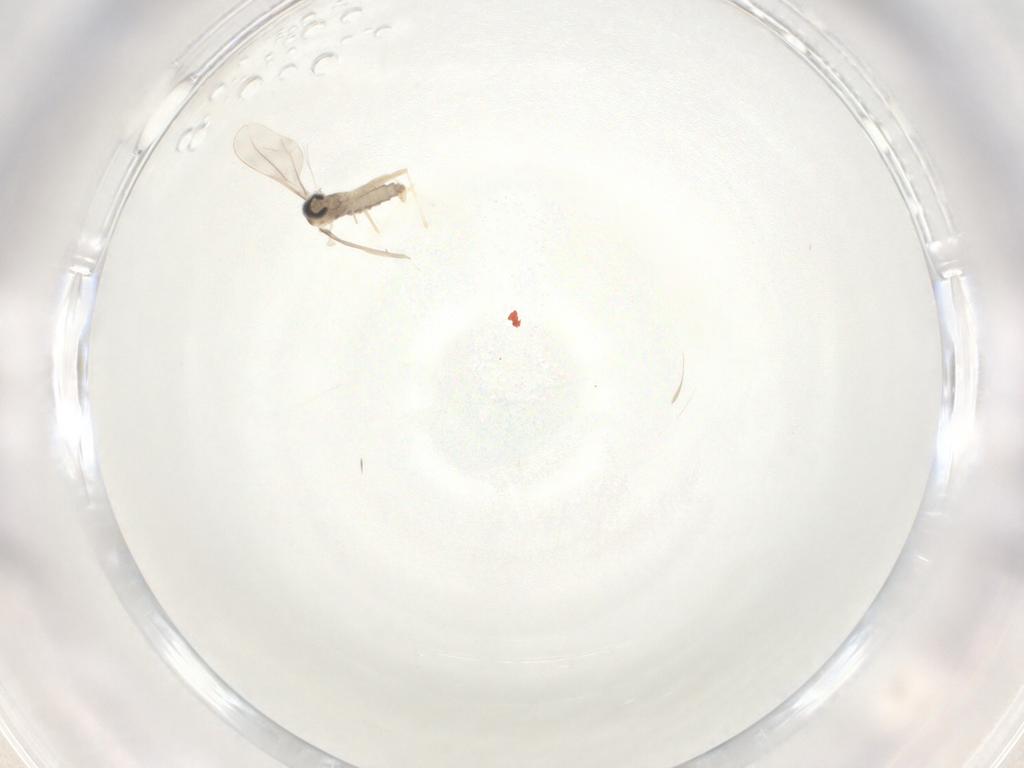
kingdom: Animalia
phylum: Arthropoda
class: Insecta
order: Diptera
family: Cecidomyiidae
